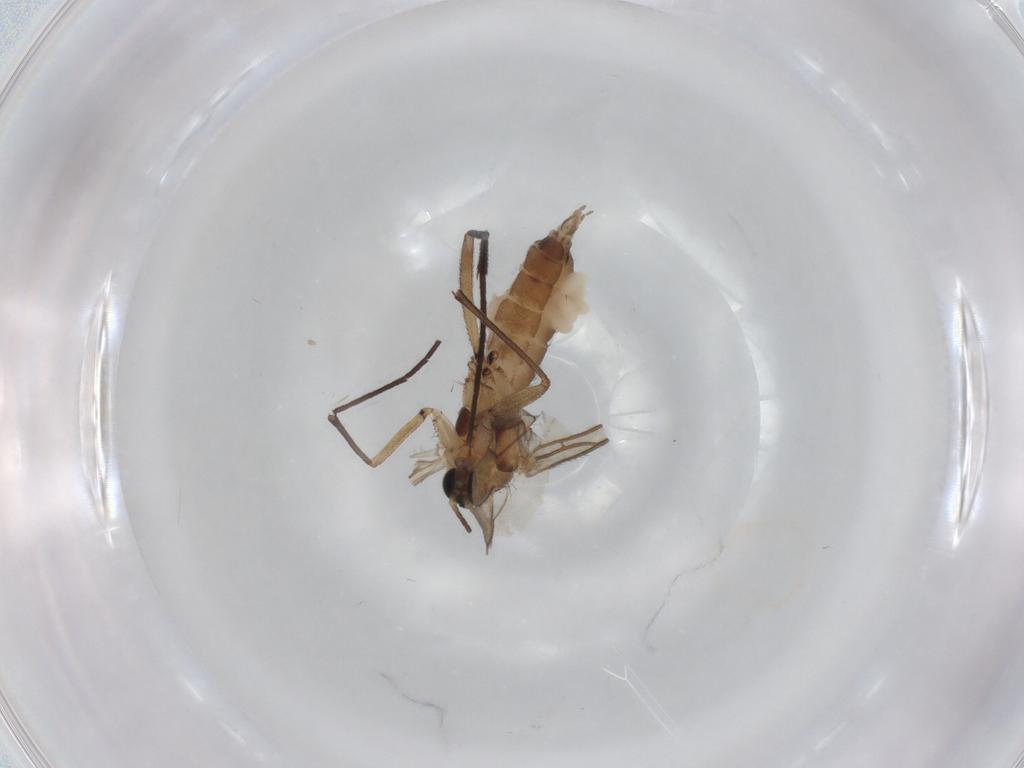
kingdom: Animalia
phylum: Arthropoda
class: Insecta
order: Diptera
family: Sciaridae
